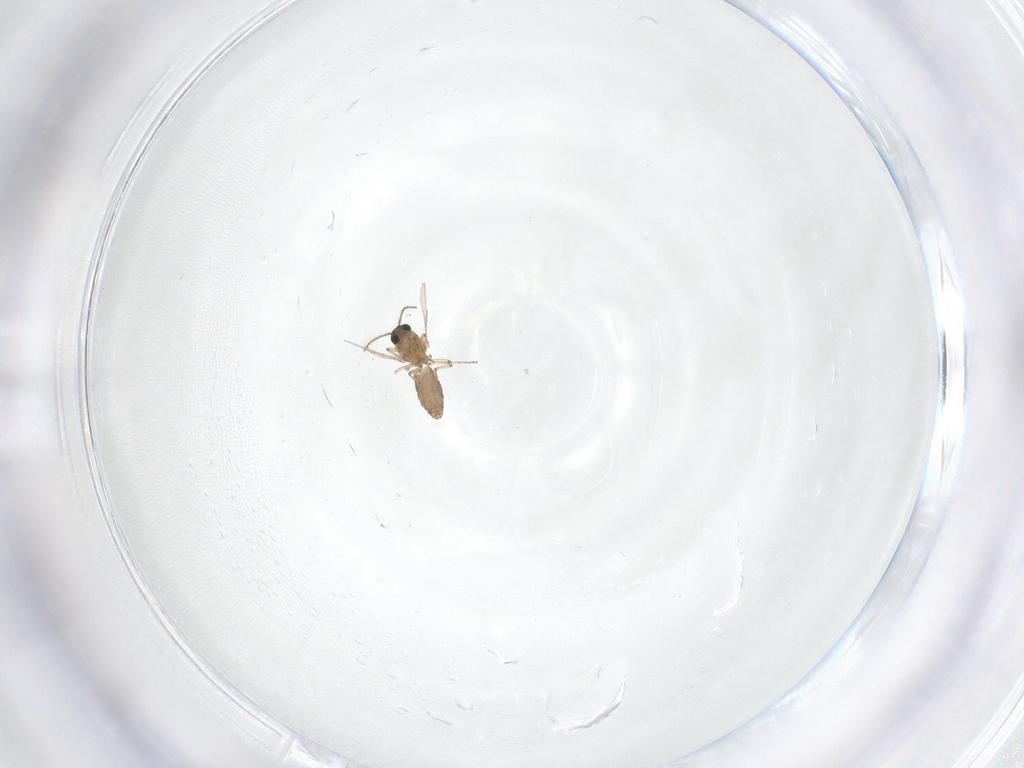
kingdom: Animalia
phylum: Arthropoda
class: Insecta
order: Diptera
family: Ceratopogonidae
